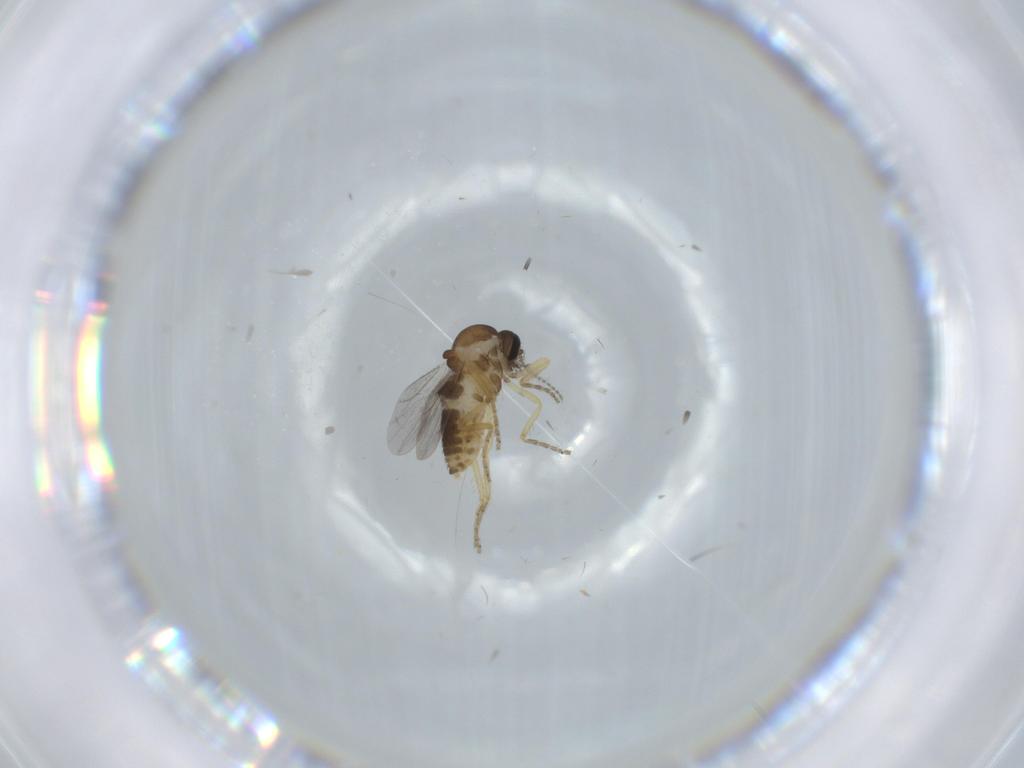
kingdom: Animalia
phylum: Arthropoda
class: Insecta
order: Diptera
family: Ceratopogonidae
